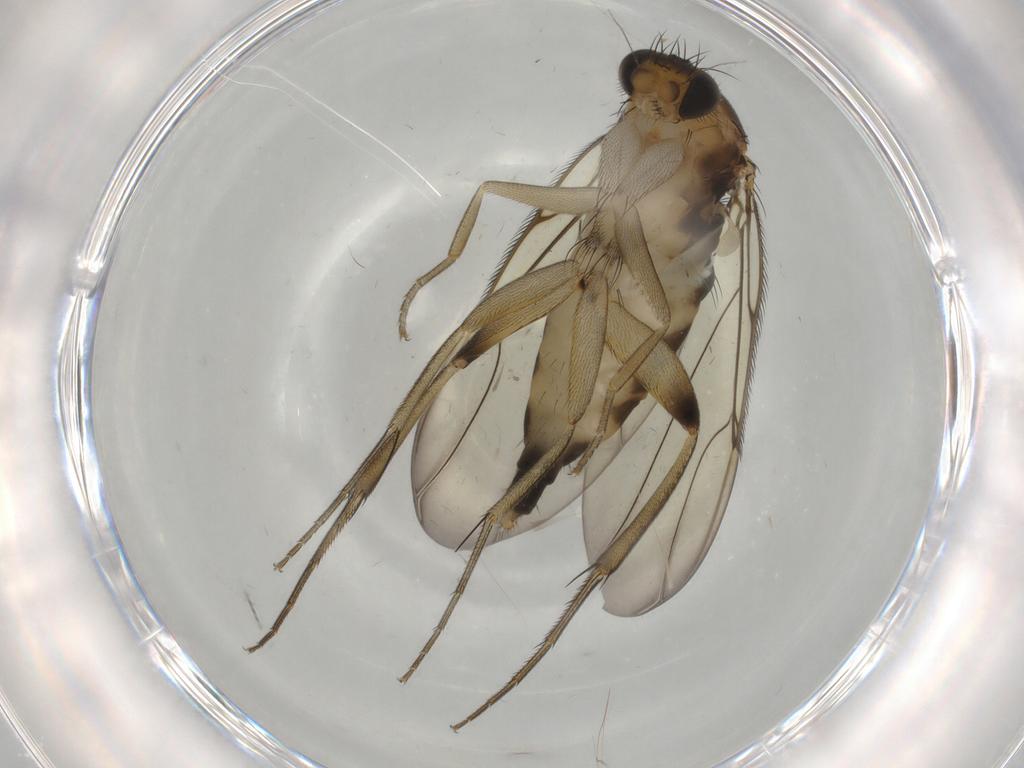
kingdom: Animalia
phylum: Arthropoda
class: Insecta
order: Diptera
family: Phoridae
